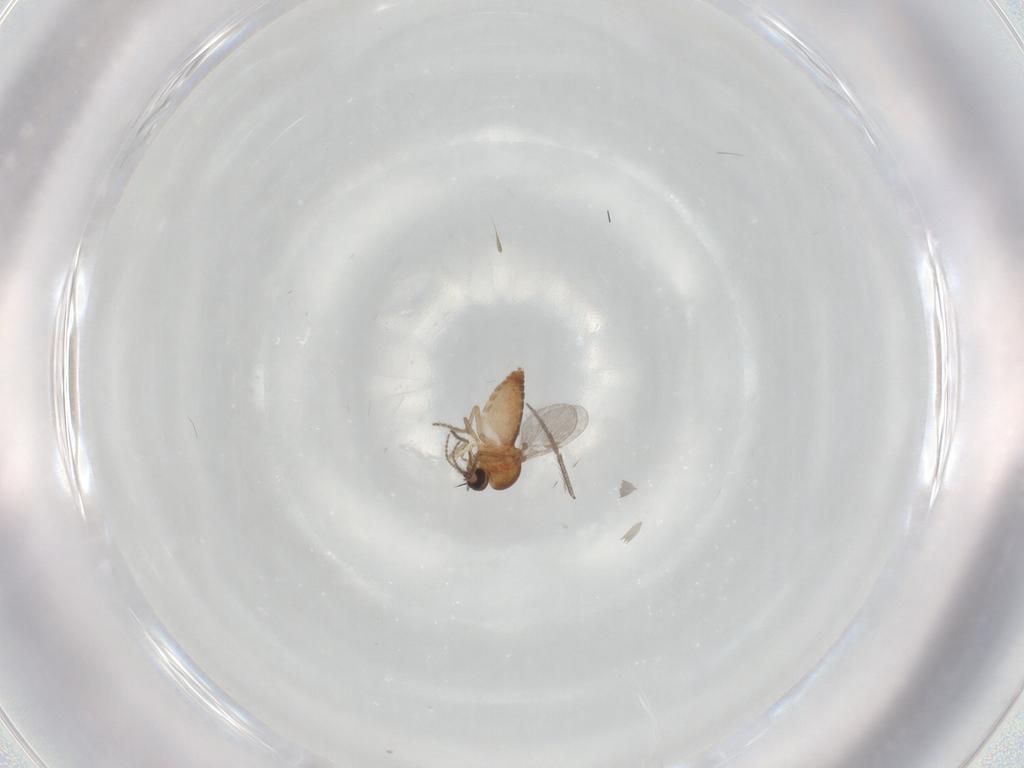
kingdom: Animalia
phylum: Arthropoda
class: Insecta
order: Diptera
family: Ceratopogonidae
